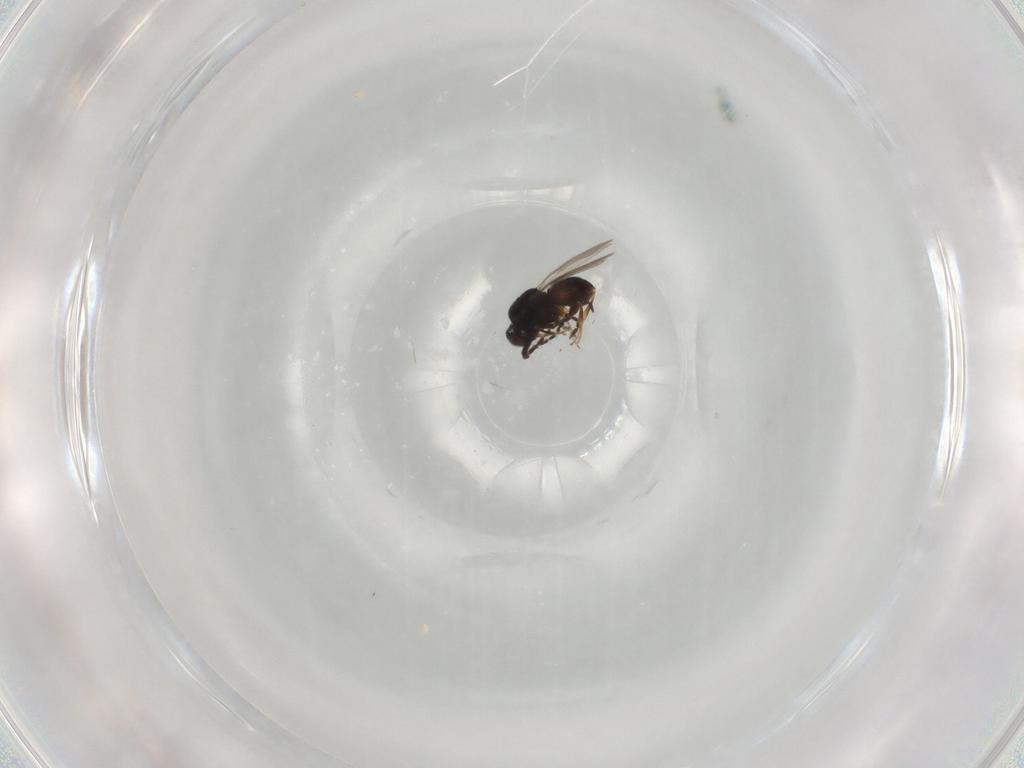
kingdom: Animalia
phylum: Arthropoda
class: Insecta
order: Hymenoptera
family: Ichneumonidae
